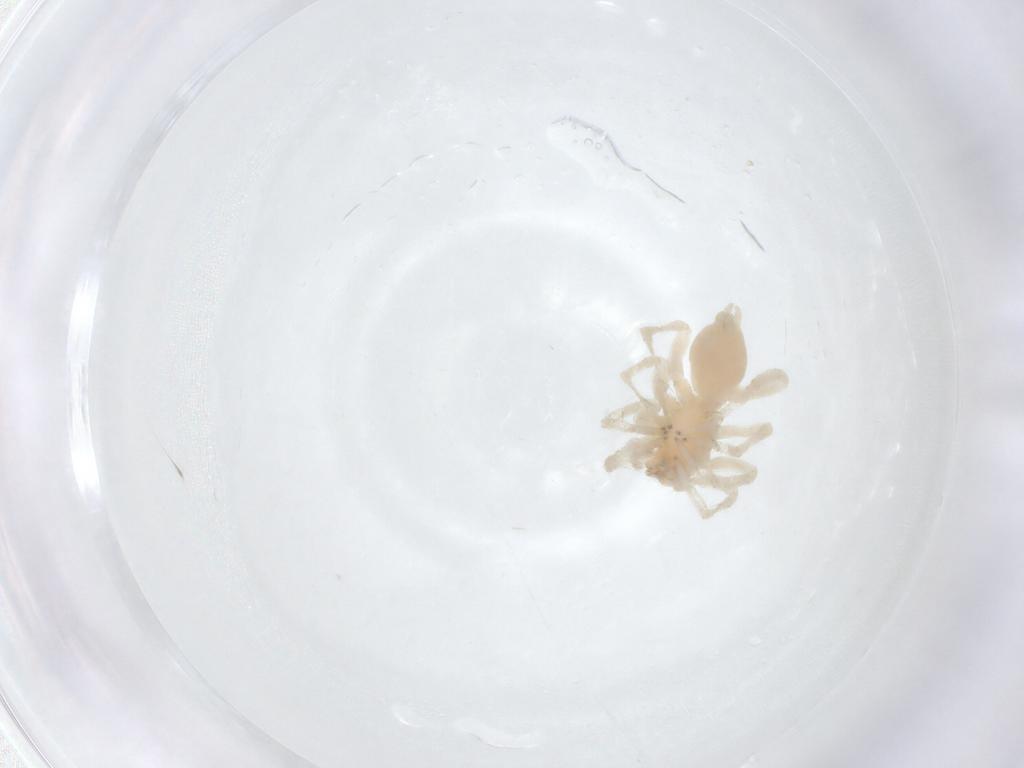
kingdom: Animalia
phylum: Arthropoda
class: Arachnida
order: Araneae
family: Clubionidae
